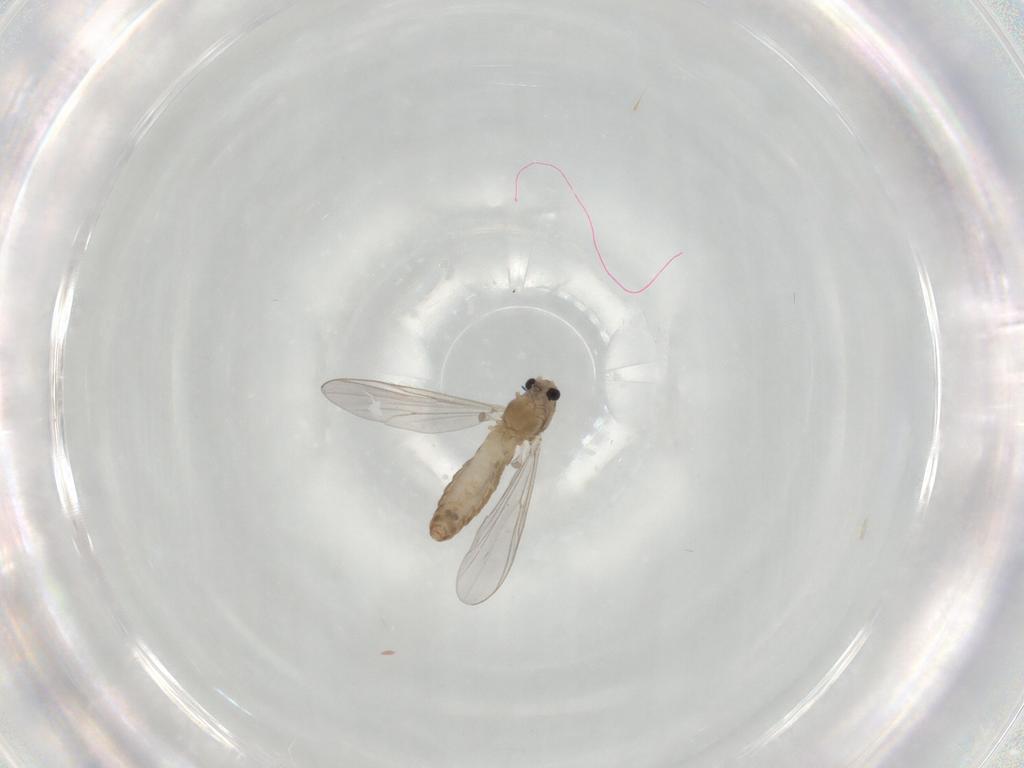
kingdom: Animalia
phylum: Arthropoda
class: Insecta
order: Diptera
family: Chironomidae
